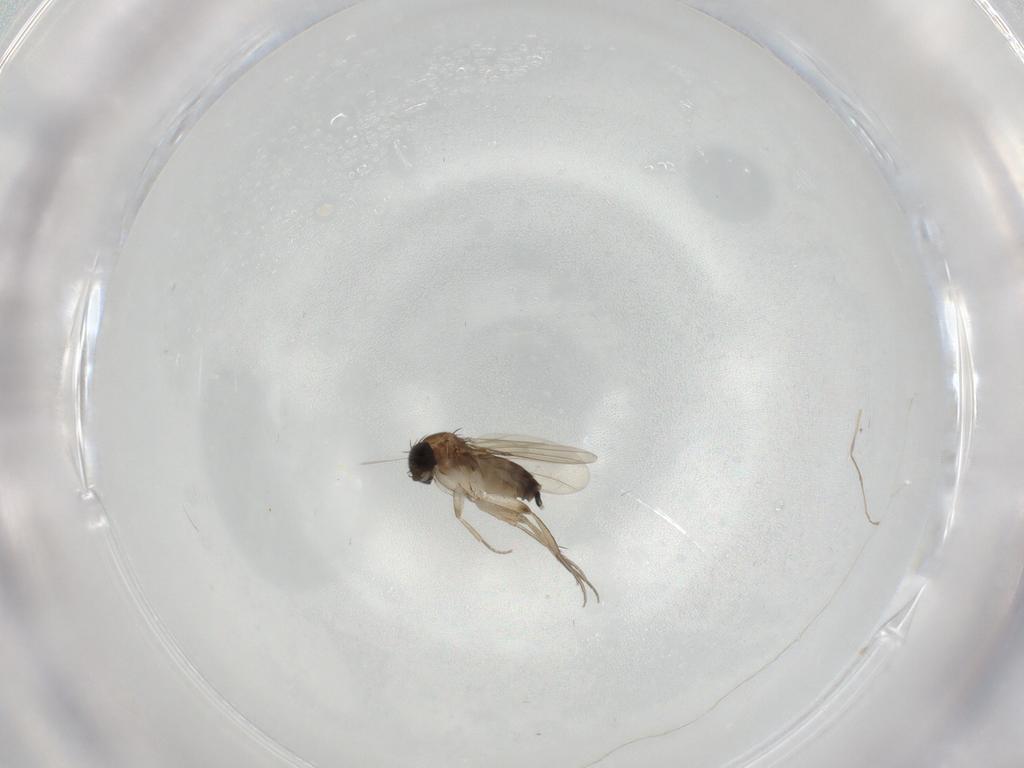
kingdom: Animalia
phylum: Arthropoda
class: Insecta
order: Diptera
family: Phoridae
